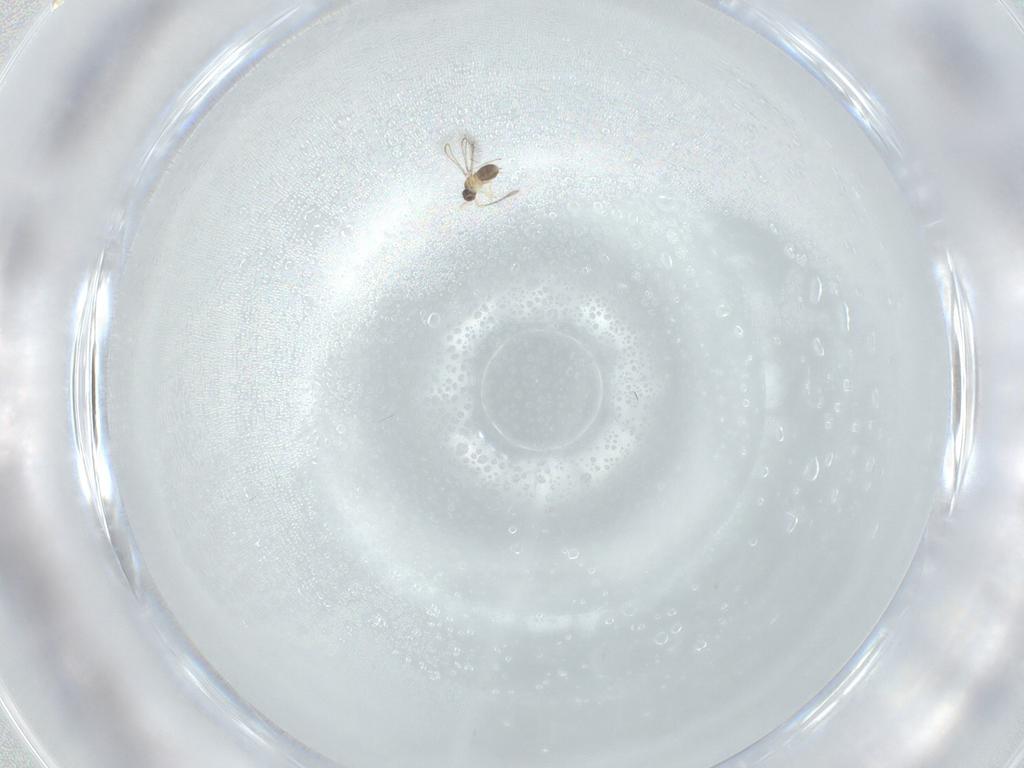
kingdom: Animalia
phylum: Arthropoda
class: Insecta
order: Hymenoptera
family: Mymaridae
